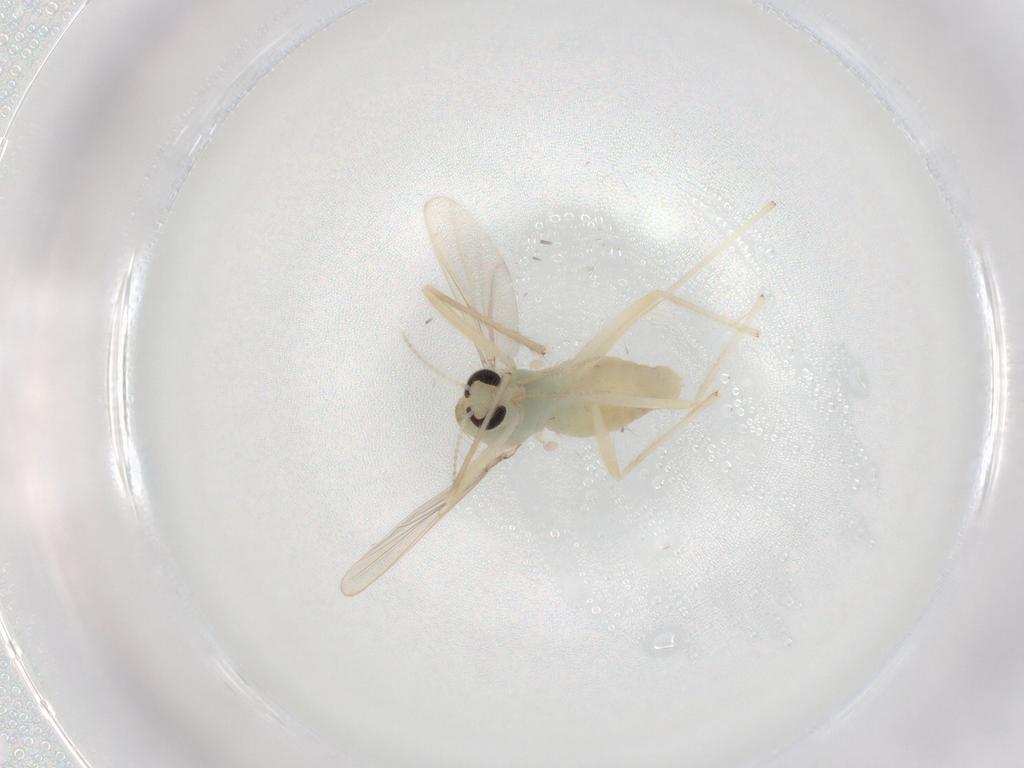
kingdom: Animalia
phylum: Arthropoda
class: Insecta
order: Diptera
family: Chironomidae
